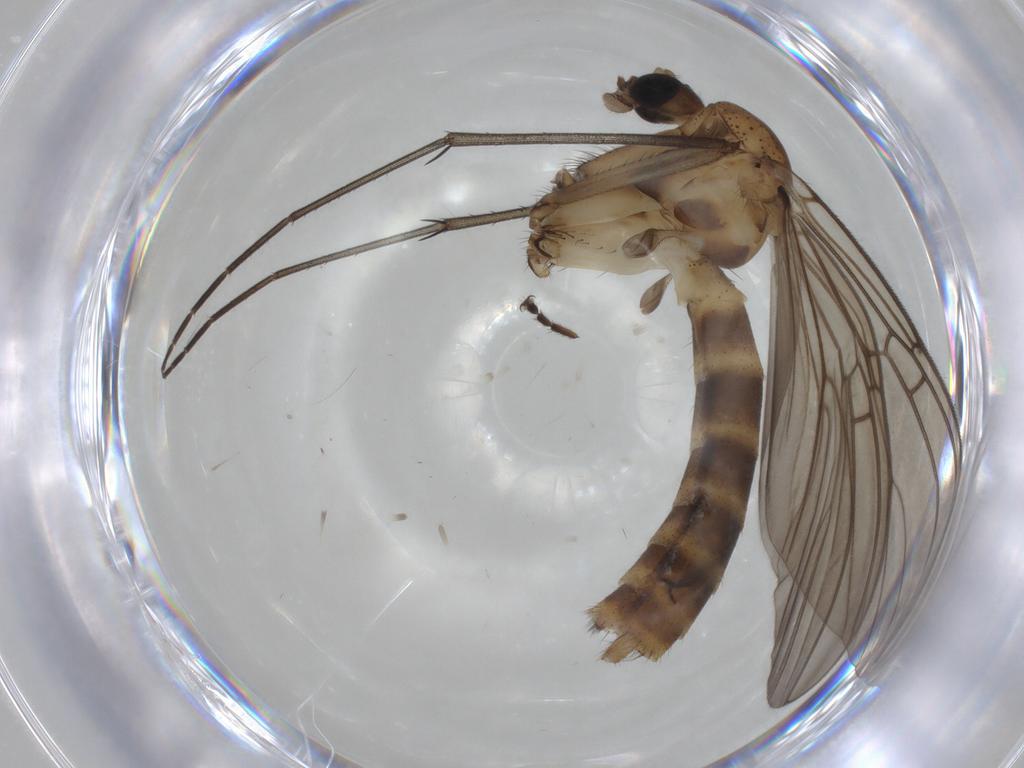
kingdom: Animalia
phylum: Arthropoda
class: Insecta
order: Diptera
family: Mycetophilidae
